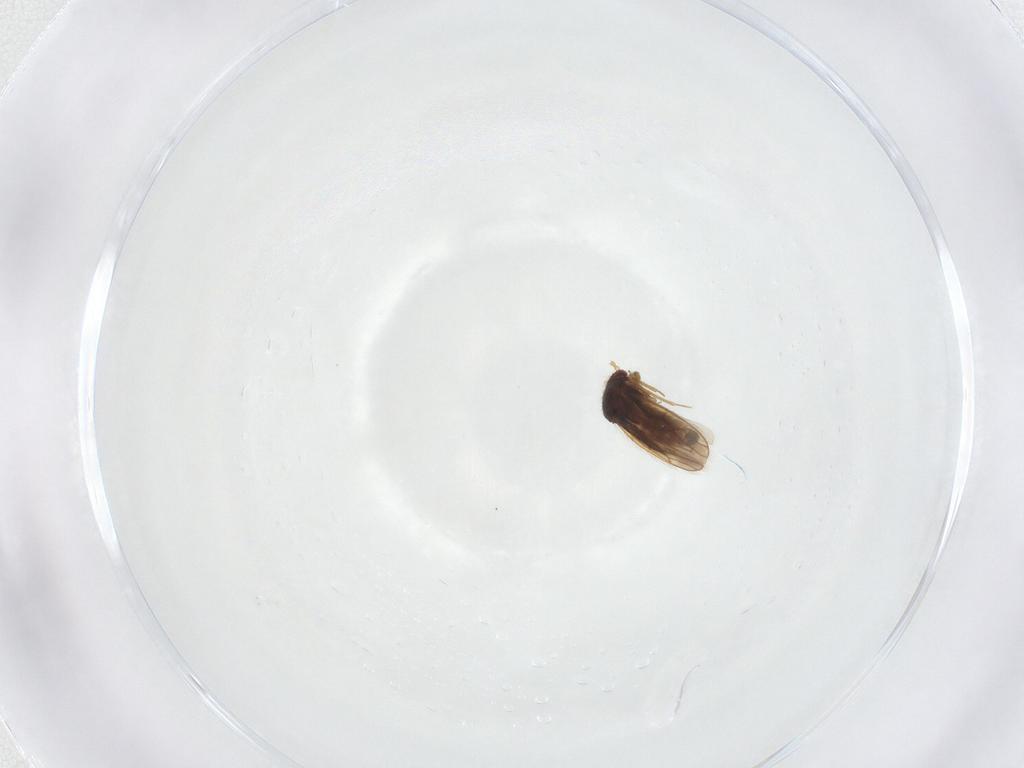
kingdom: Animalia
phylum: Arthropoda
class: Insecta
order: Hemiptera
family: Schizopteridae
